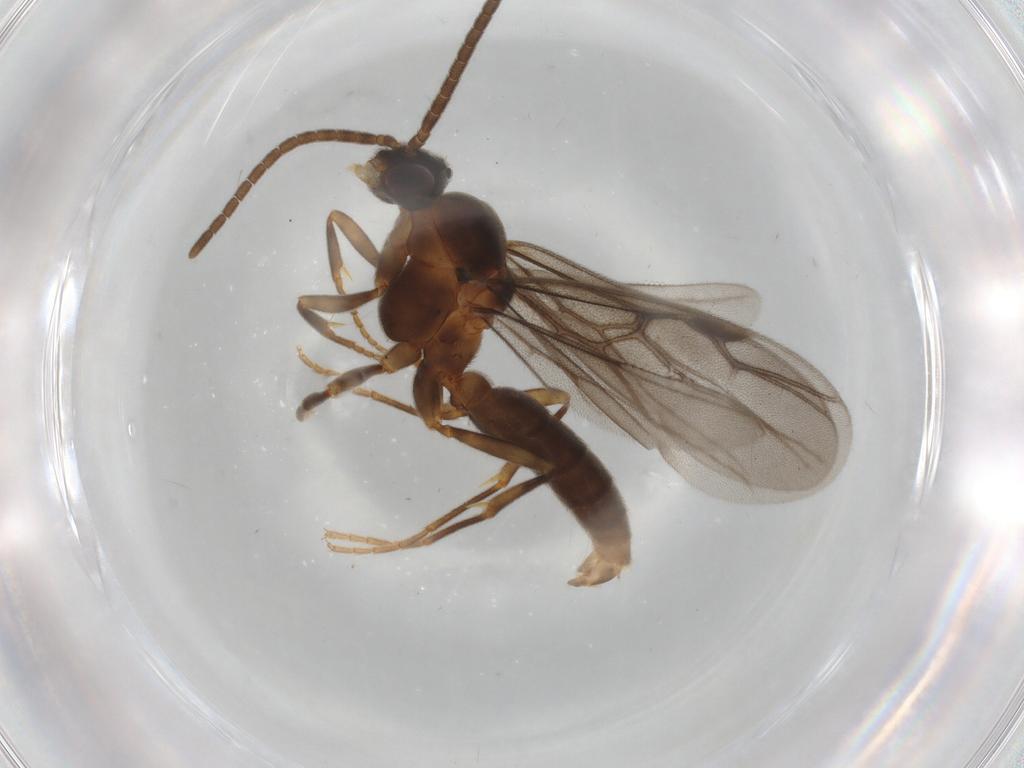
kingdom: Animalia
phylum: Arthropoda
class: Insecta
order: Hymenoptera
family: Formicidae
